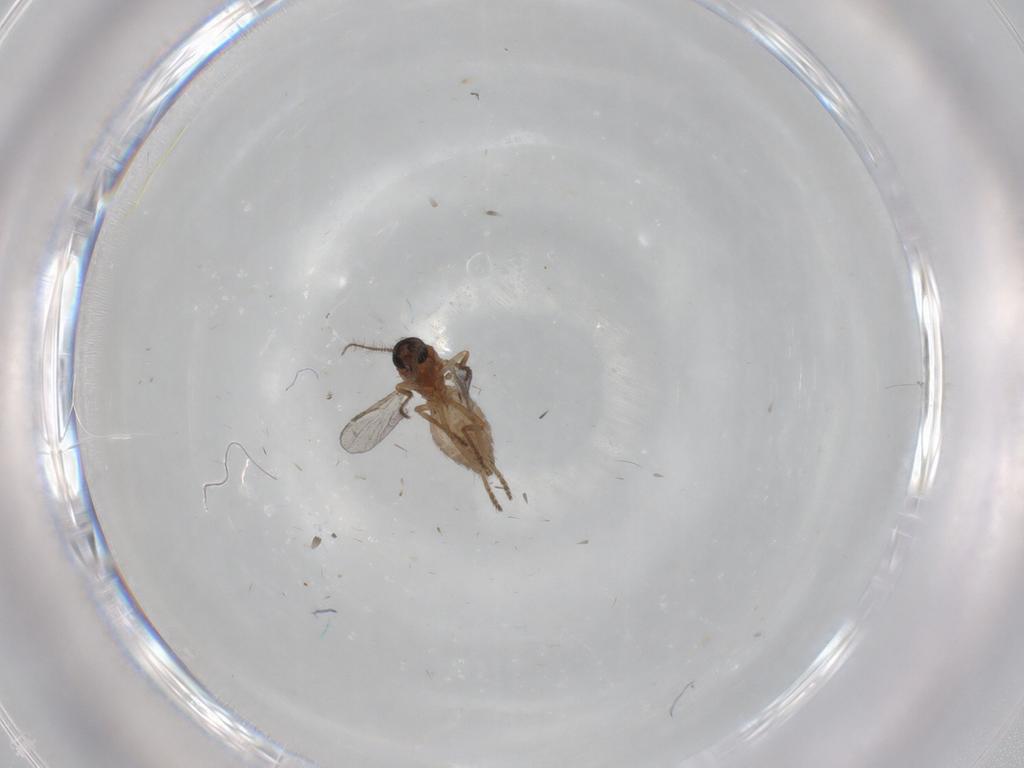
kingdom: Animalia
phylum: Arthropoda
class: Insecta
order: Diptera
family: Ceratopogonidae
